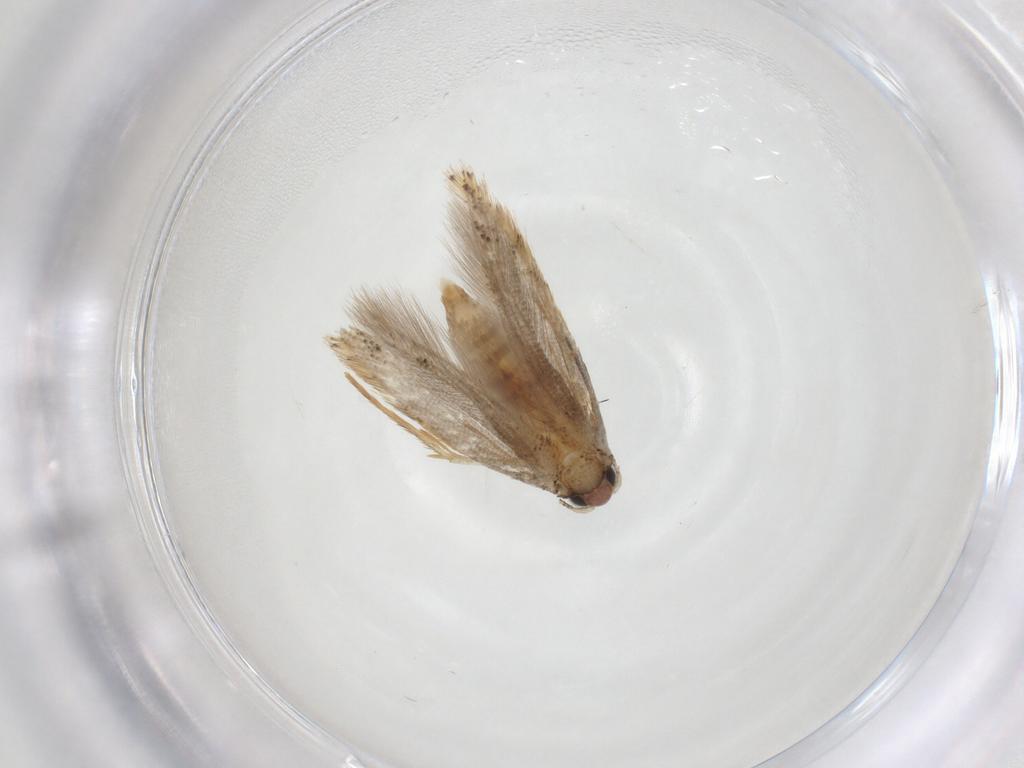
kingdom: Animalia
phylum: Arthropoda
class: Insecta
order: Lepidoptera
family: Tineidae
